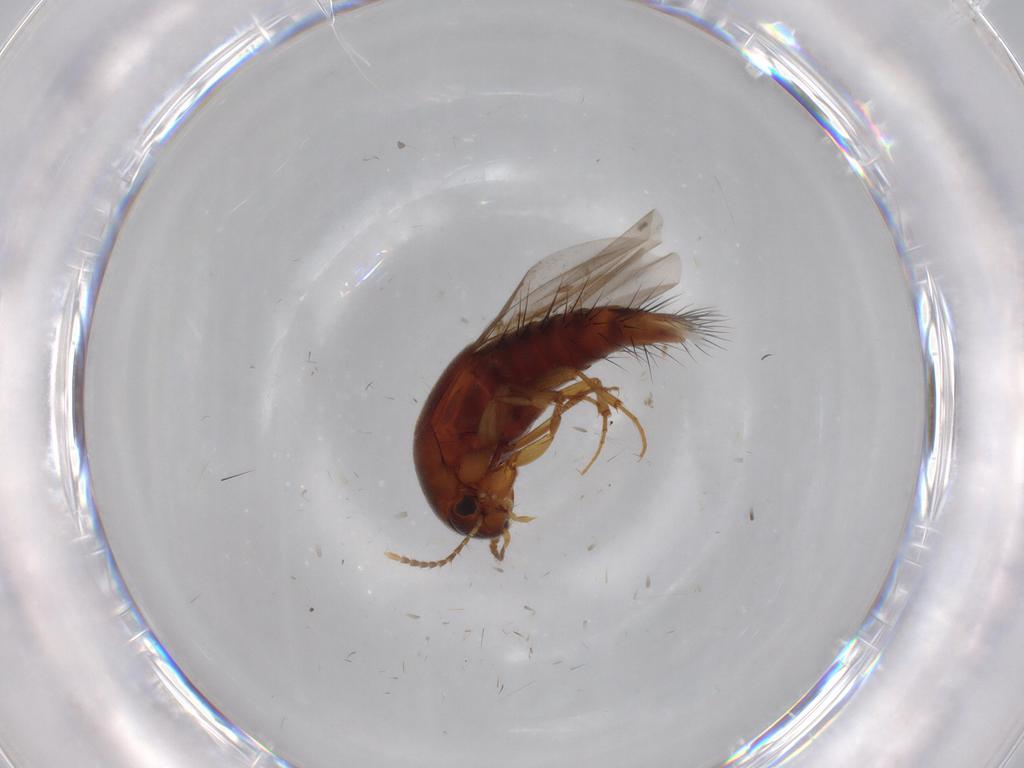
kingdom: Animalia
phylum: Arthropoda
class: Insecta
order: Coleoptera
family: Staphylinidae
